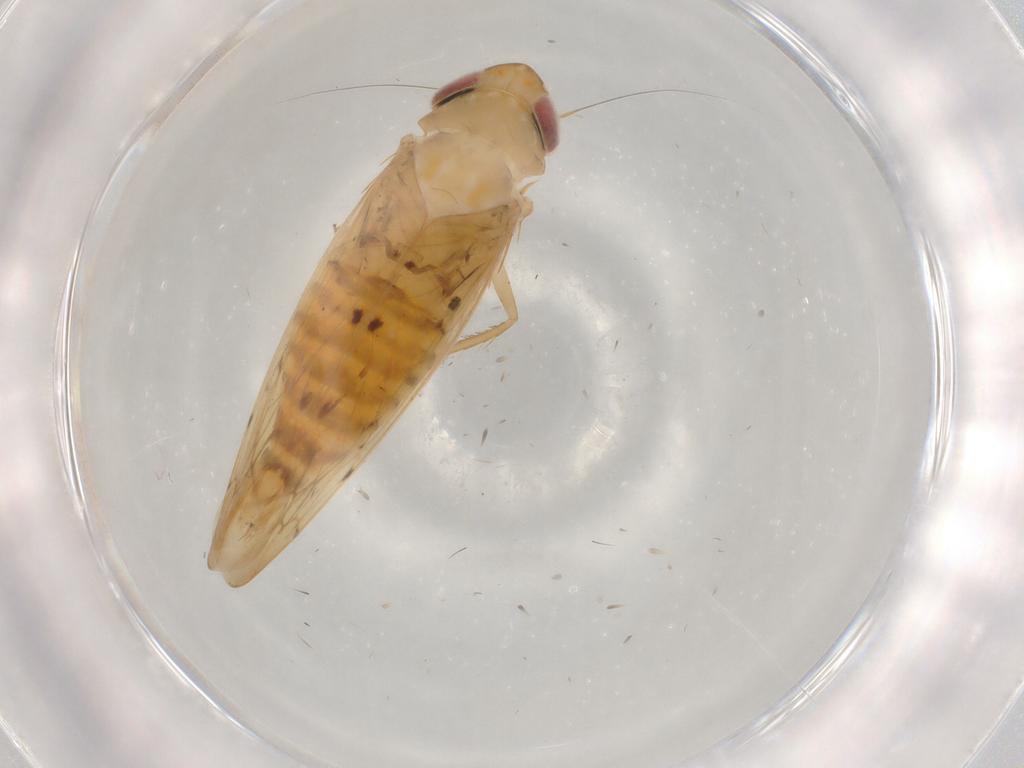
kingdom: Animalia
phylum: Arthropoda
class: Insecta
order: Hemiptera
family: Cicadellidae
